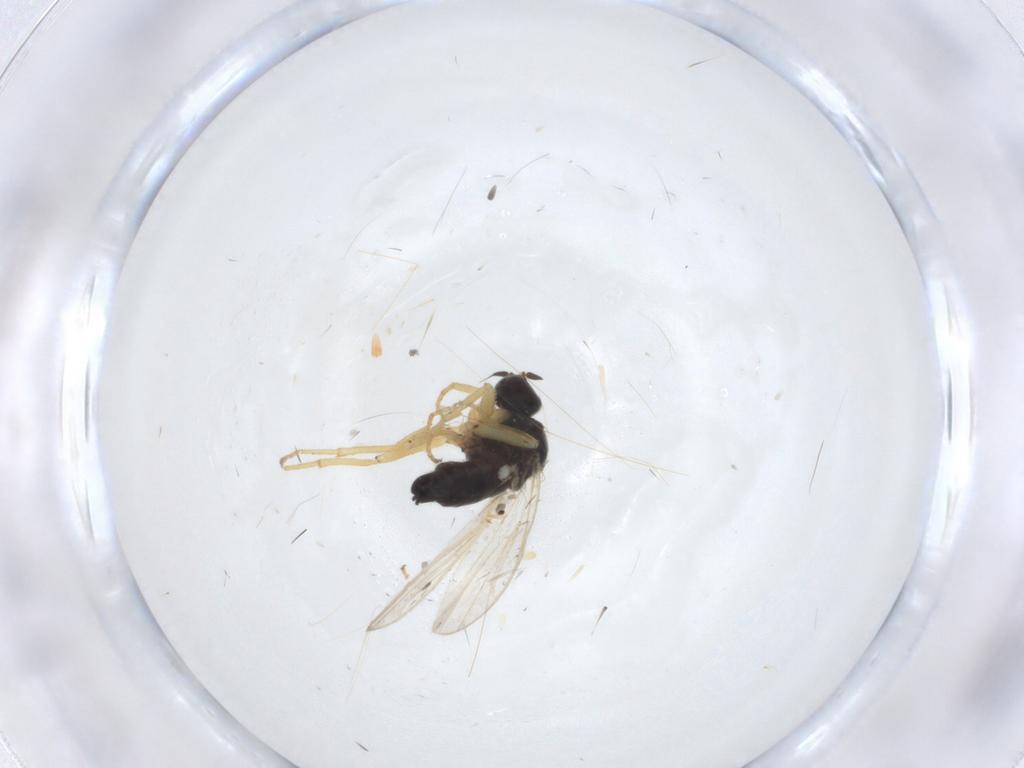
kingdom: Animalia
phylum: Arthropoda
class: Insecta
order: Diptera
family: Hybotidae
